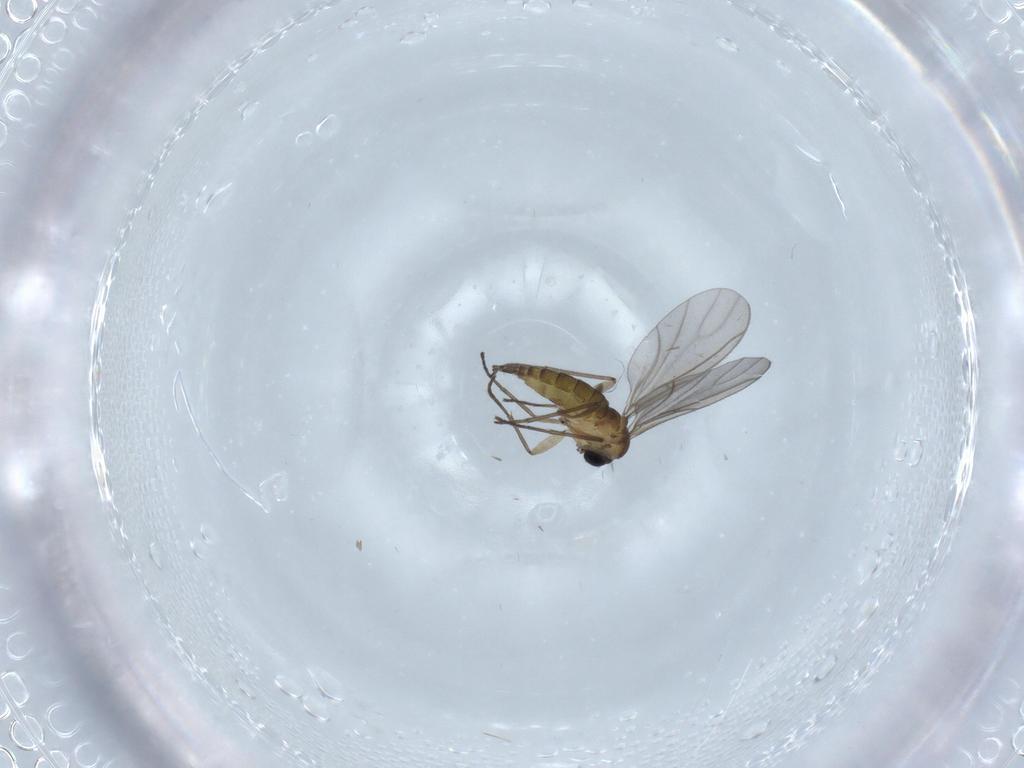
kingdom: Animalia
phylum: Arthropoda
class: Insecta
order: Diptera
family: Sciaridae
